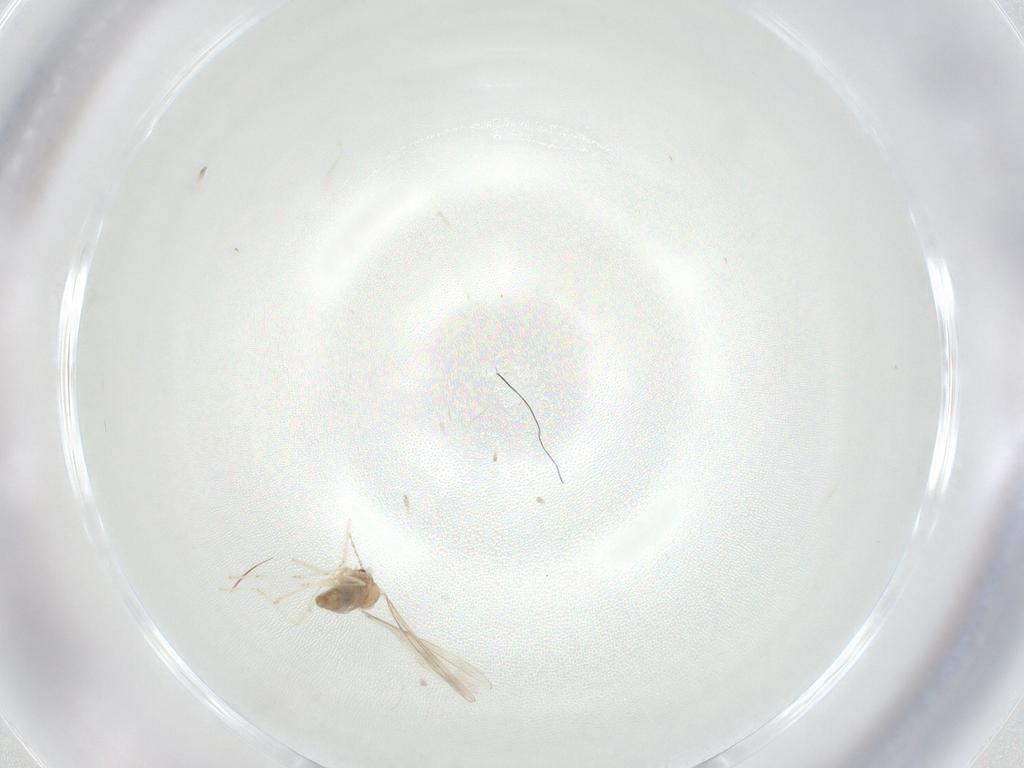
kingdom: Animalia
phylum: Arthropoda
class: Insecta
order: Diptera
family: Cecidomyiidae
